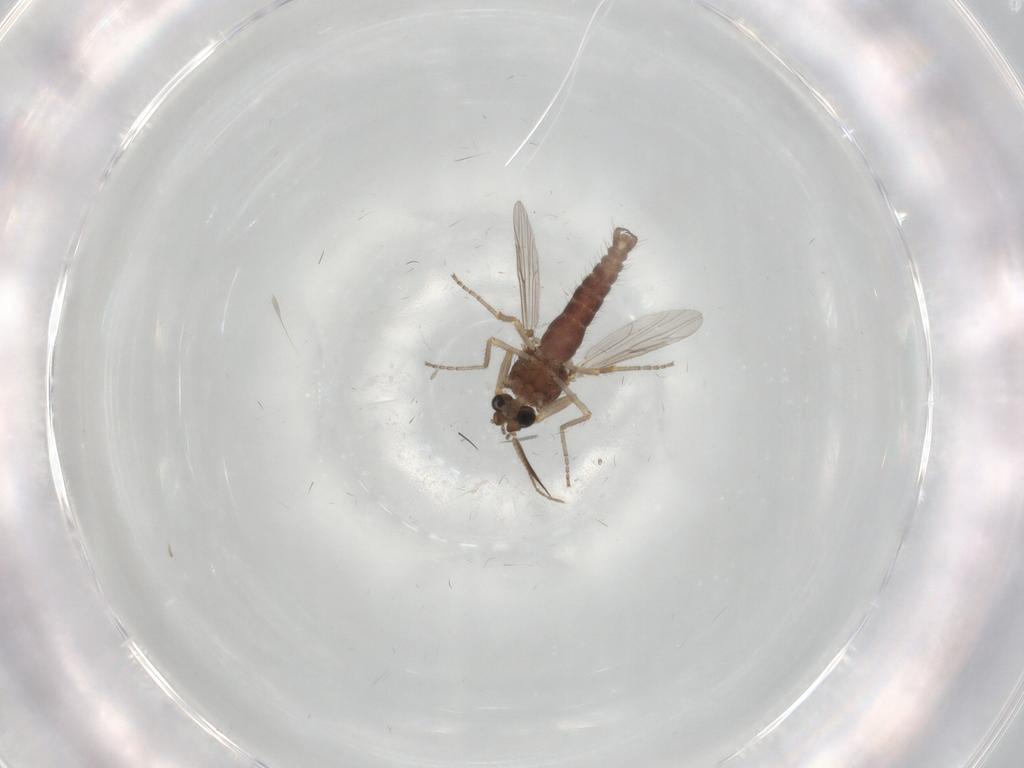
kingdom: Animalia
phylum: Arthropoda
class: Insecta
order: Diptera
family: Ceratopogonidae
